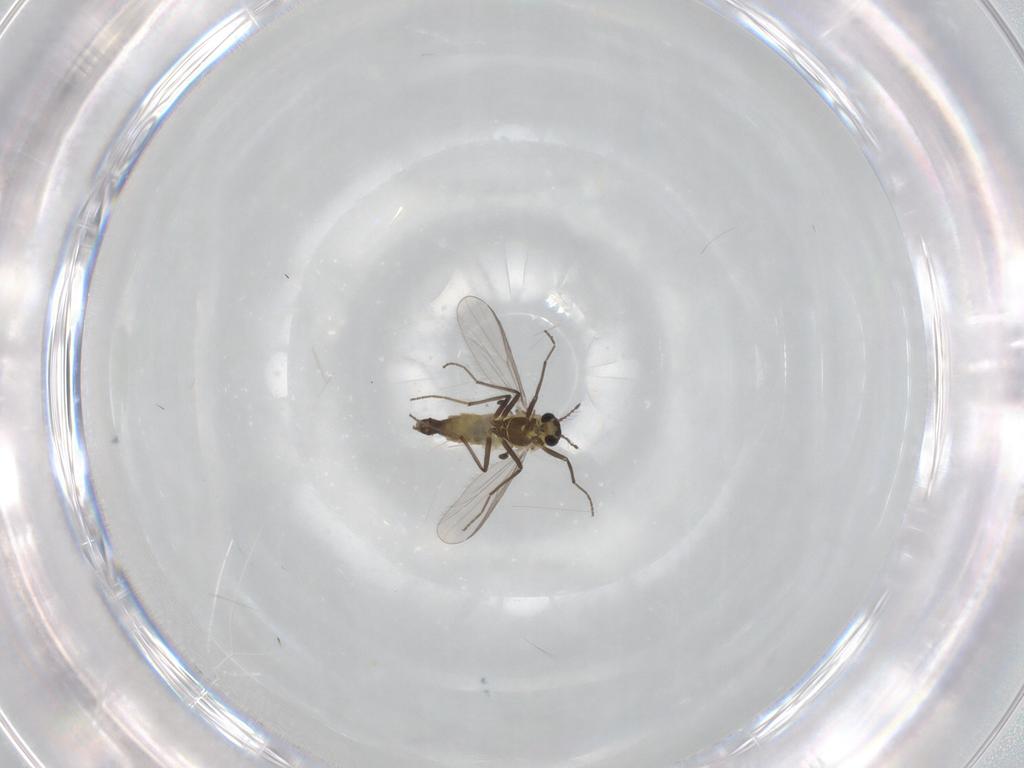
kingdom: Animalia
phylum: Arthropoda
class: Insecta
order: Diptera
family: Chironomidae
